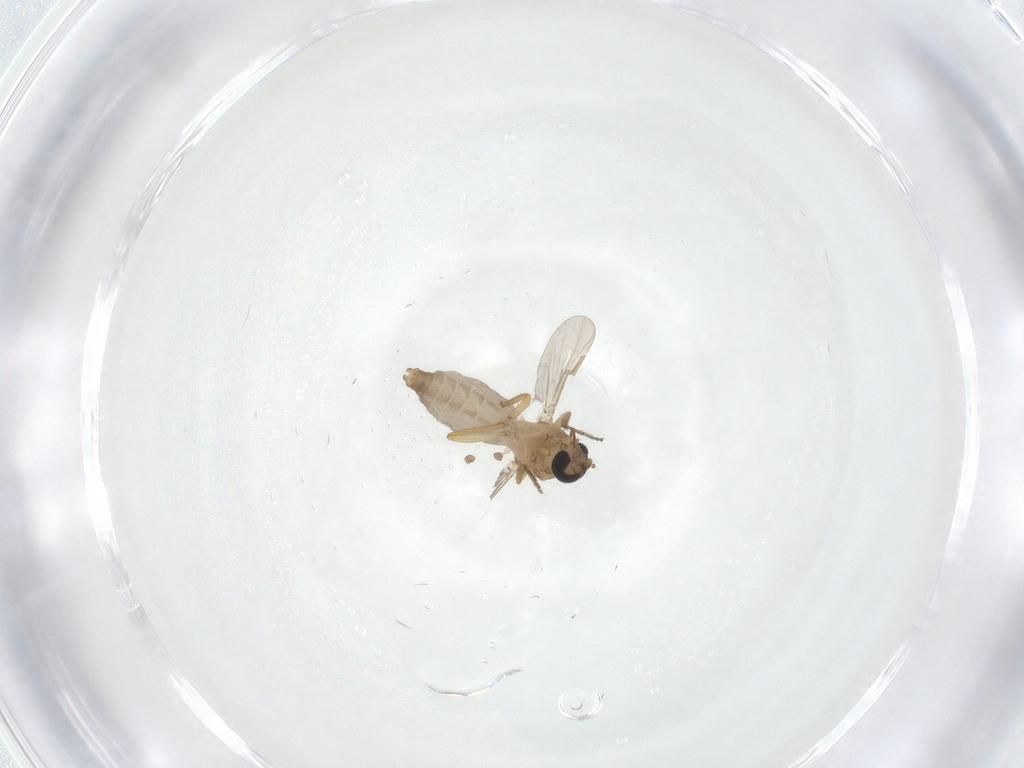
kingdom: Animalia
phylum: Arthropoda
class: Insecta
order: Diptera
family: Ceratopogonidae
